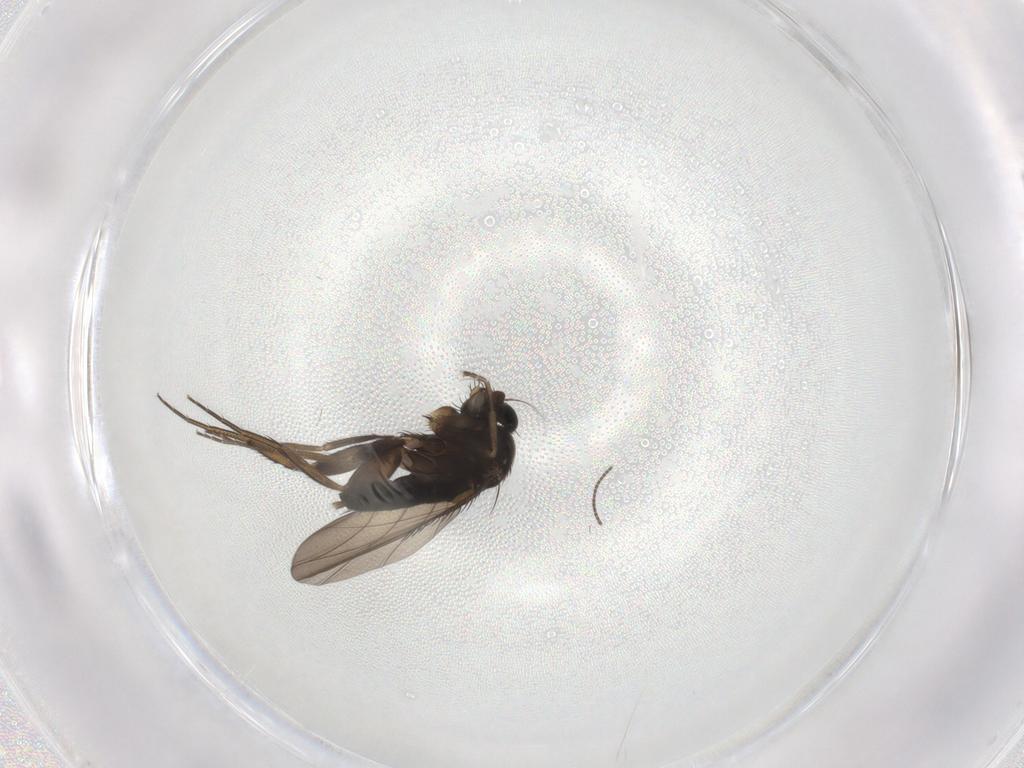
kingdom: Animalia
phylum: Arthropoda
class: Insecta
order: Diptera
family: Phoridae
